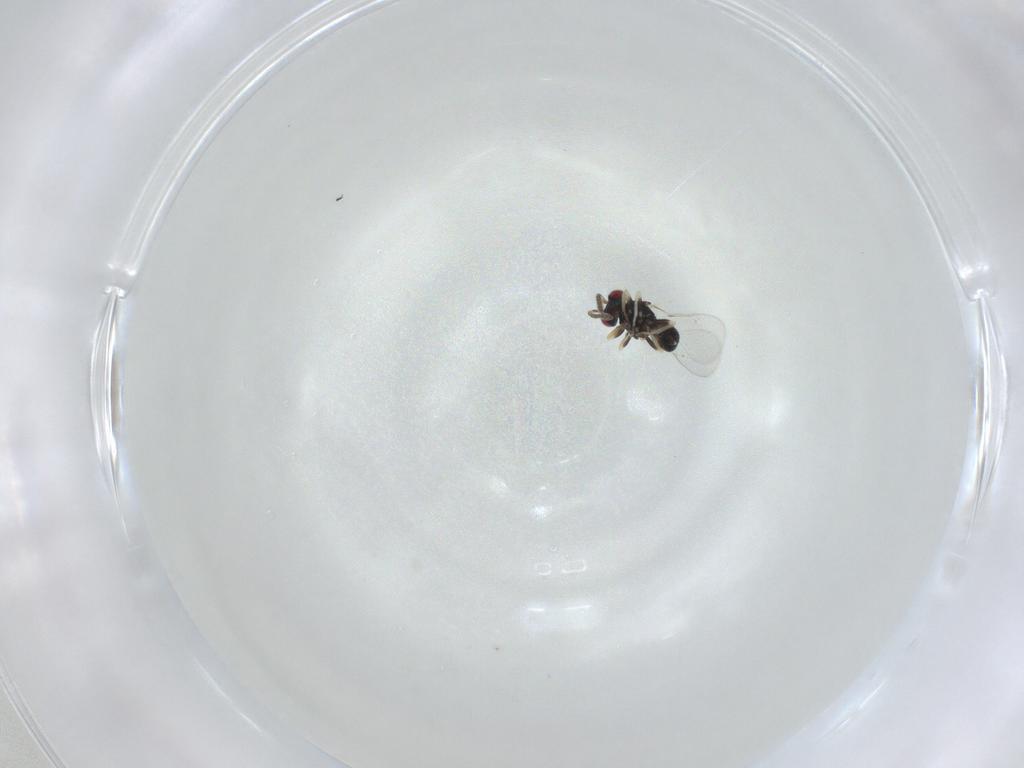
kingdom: Animalia
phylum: Arthropoda
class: Insecta
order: Hymenoptera
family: Eulophidae
